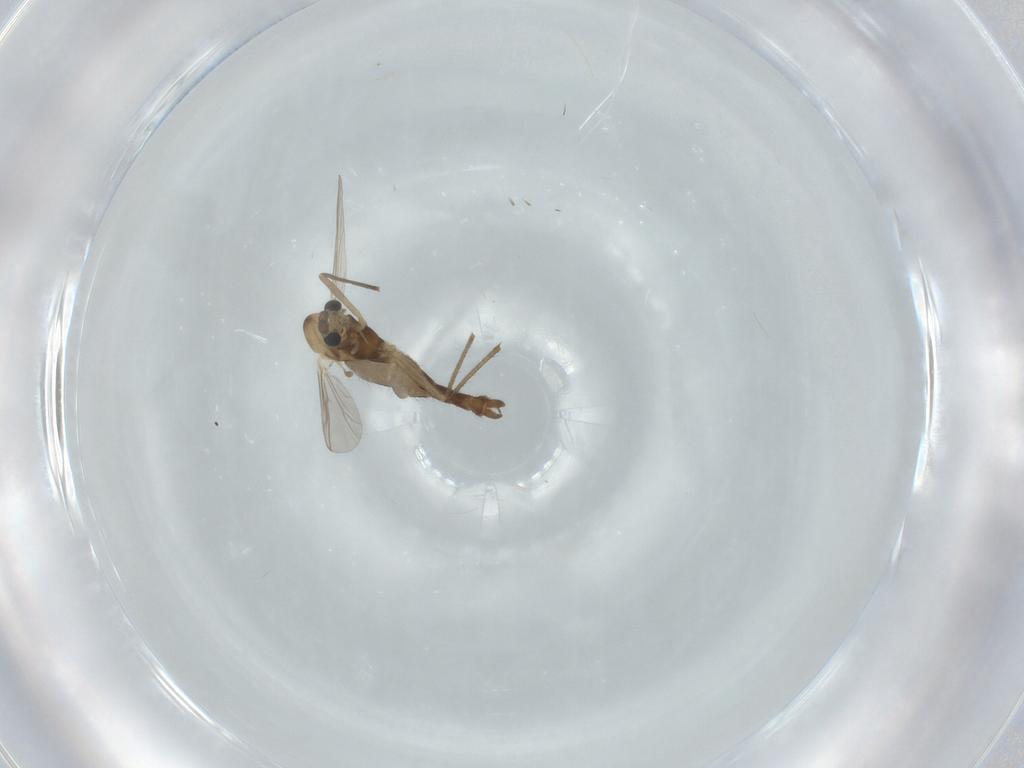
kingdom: Animalia
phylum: Arthropoda
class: Insecta
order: Diptera
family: Chironomidae
